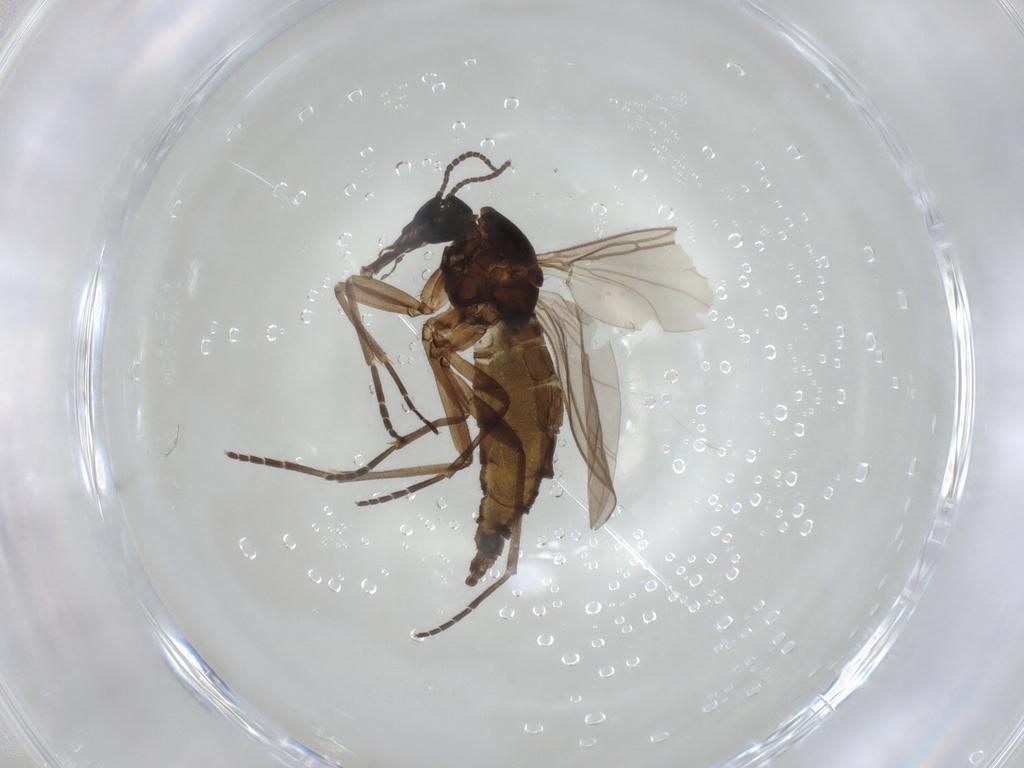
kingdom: Animalia
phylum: Arthropoda
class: Insecta
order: Diptera
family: Sciaridae
